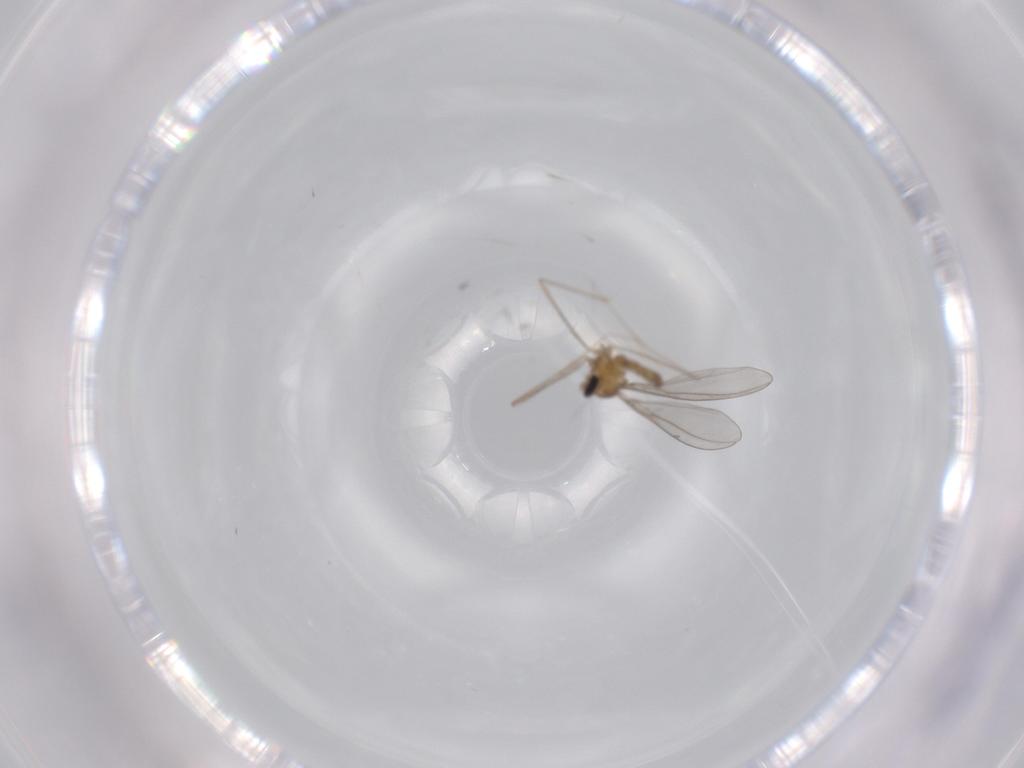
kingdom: Animalia
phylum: Arthropoda
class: Insecta
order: Diptera
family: Cecidomyiidae
